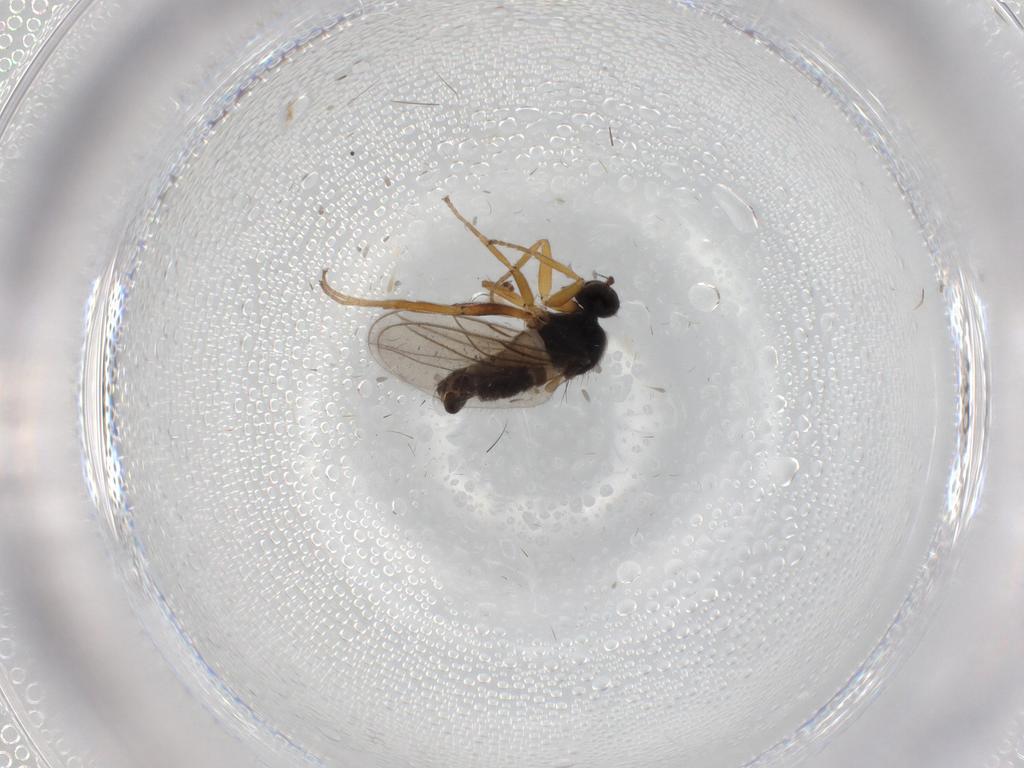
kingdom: Animalia
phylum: Arthropoda
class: Insecta
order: Diptera
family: Hybotidae
